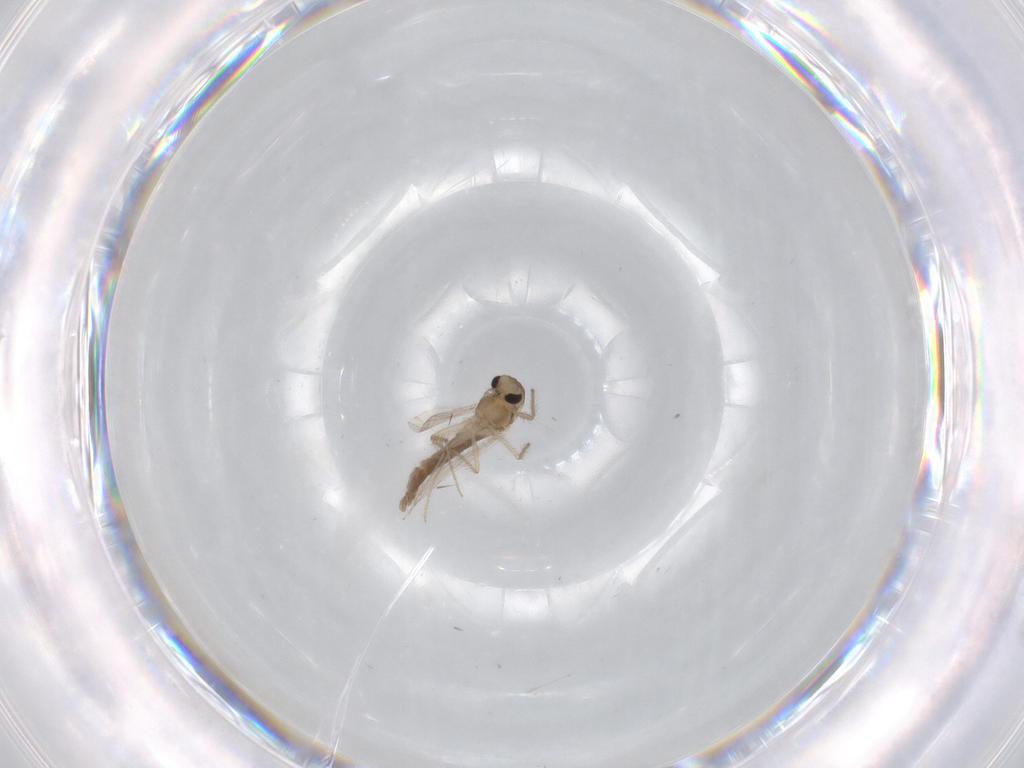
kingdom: Animalia
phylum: Arthropoda
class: Insecta
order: Diptera
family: Chironomidae
